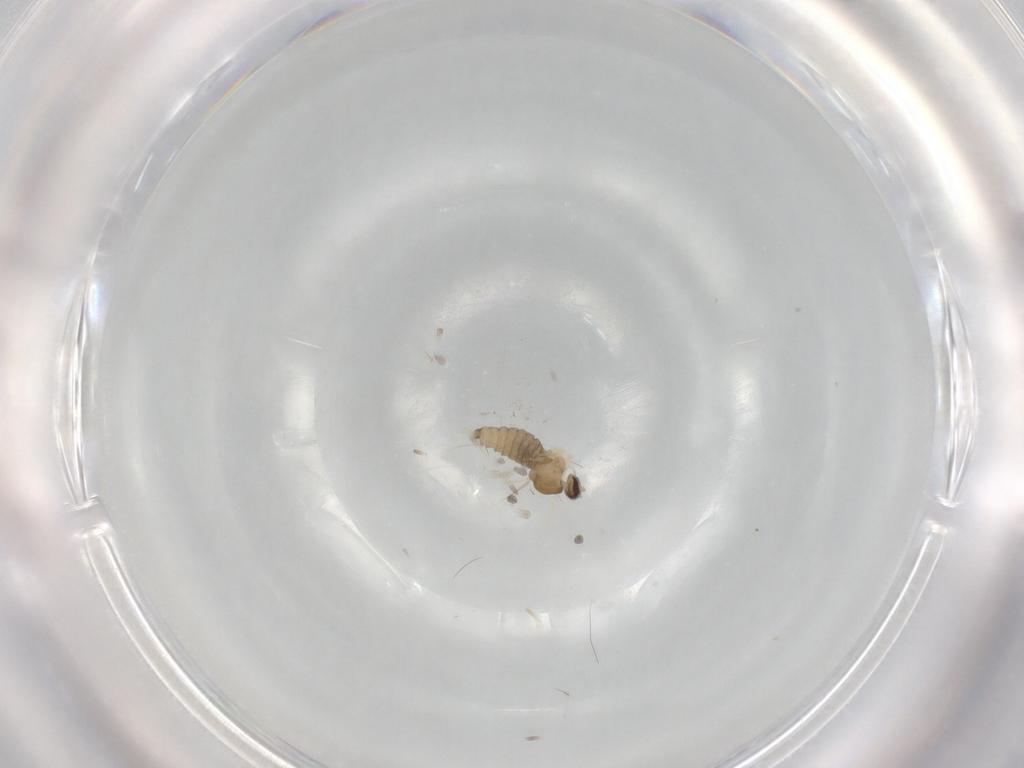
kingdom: Animalia
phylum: Arthropoda
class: Insecta
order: Diptera
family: Cecidomyiidae
